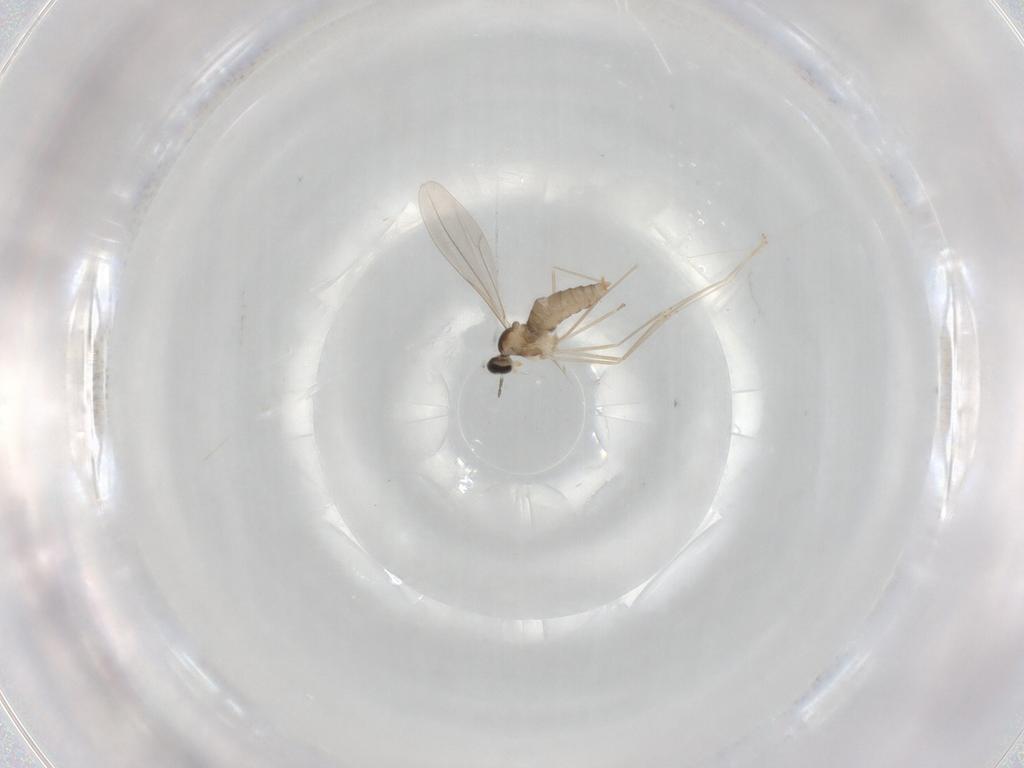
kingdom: Animalia
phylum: Arthropoda
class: Insecta
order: Diptera
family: Cecidomyiidae
